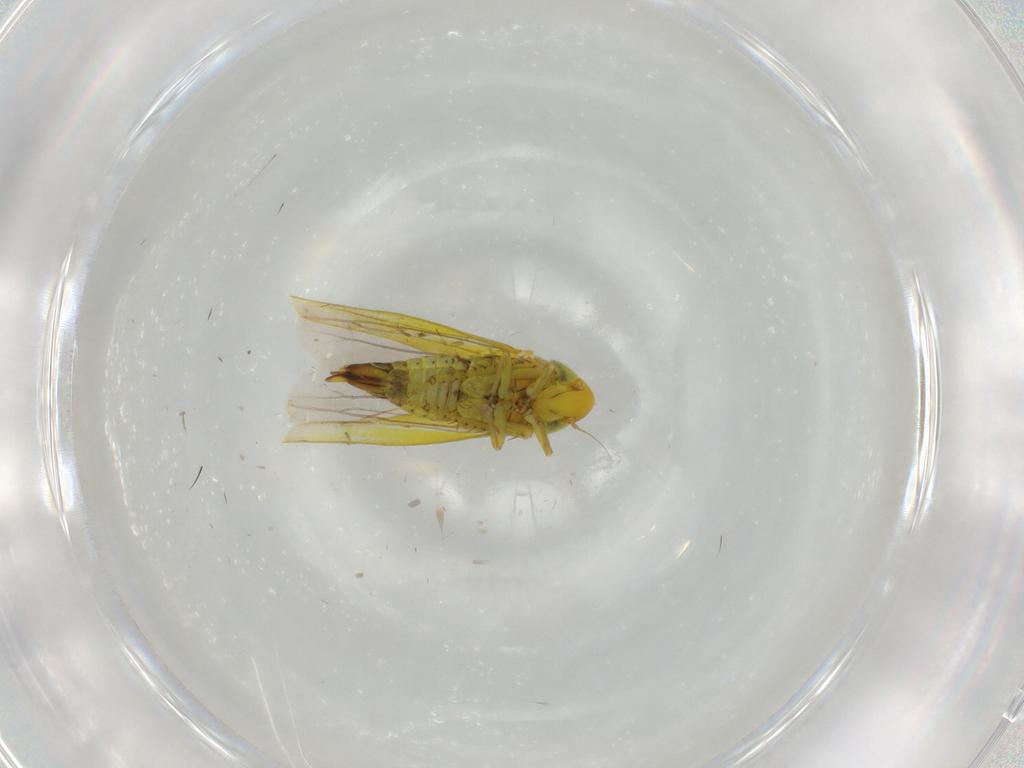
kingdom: Animalia
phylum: Arthropoda
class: Insecta
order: Hemiptera
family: Cicadellidae
